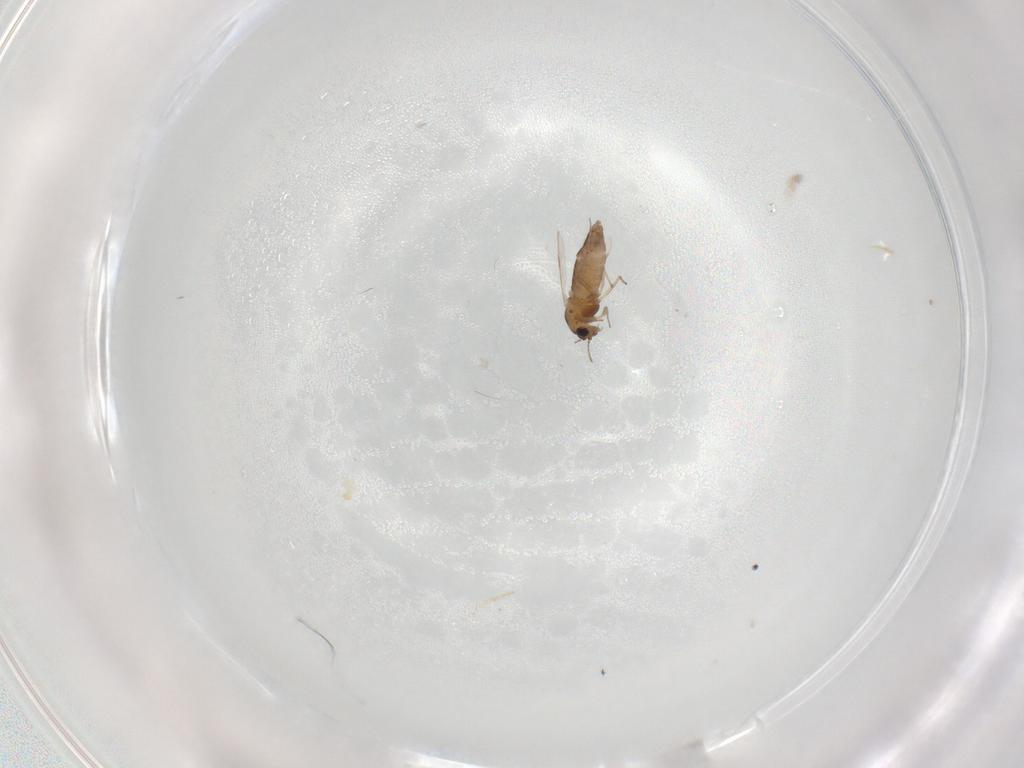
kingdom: Animalia
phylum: Arthropoda
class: Insecta
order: Diptera
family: Chironomidae
